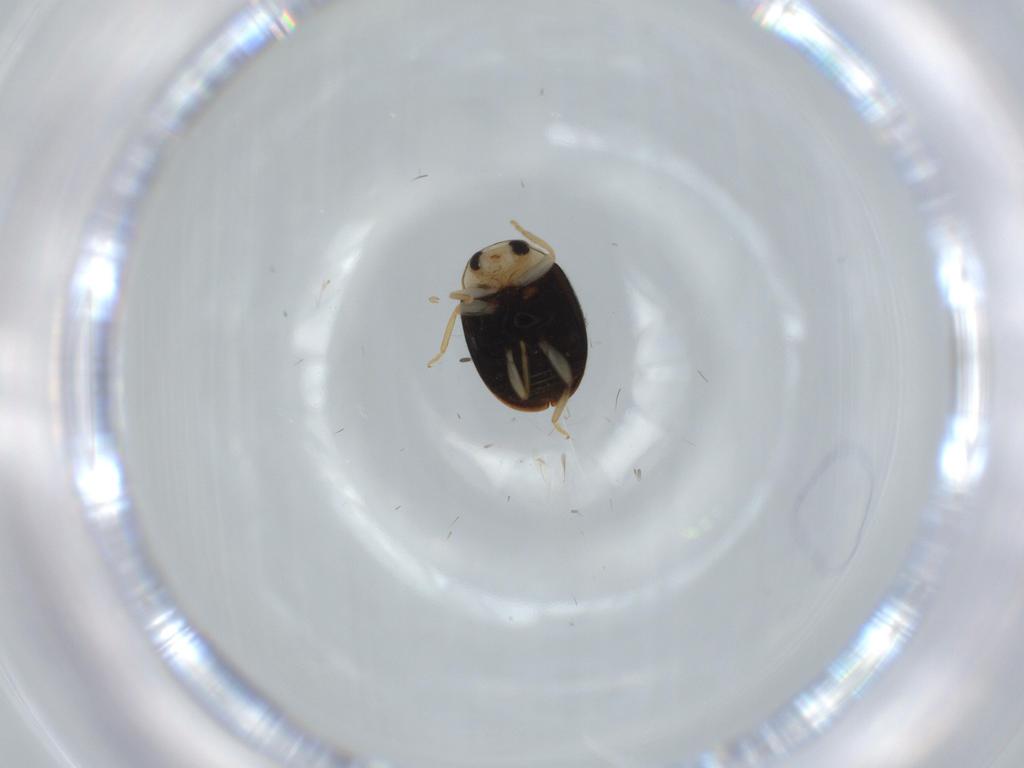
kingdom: Animalia
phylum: Arthropoda
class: Insecta
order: Coleoptera
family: Coccinellidae
